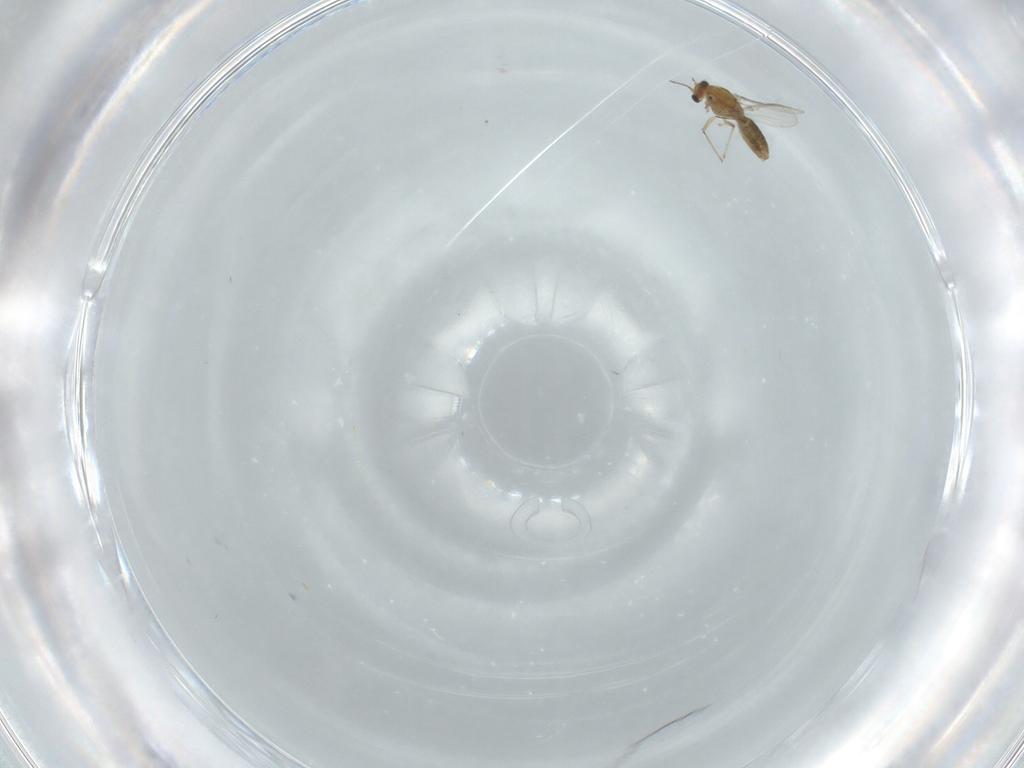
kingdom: Animalia
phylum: Arthropoda
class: Insecta
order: Diptera
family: Chironomidae
